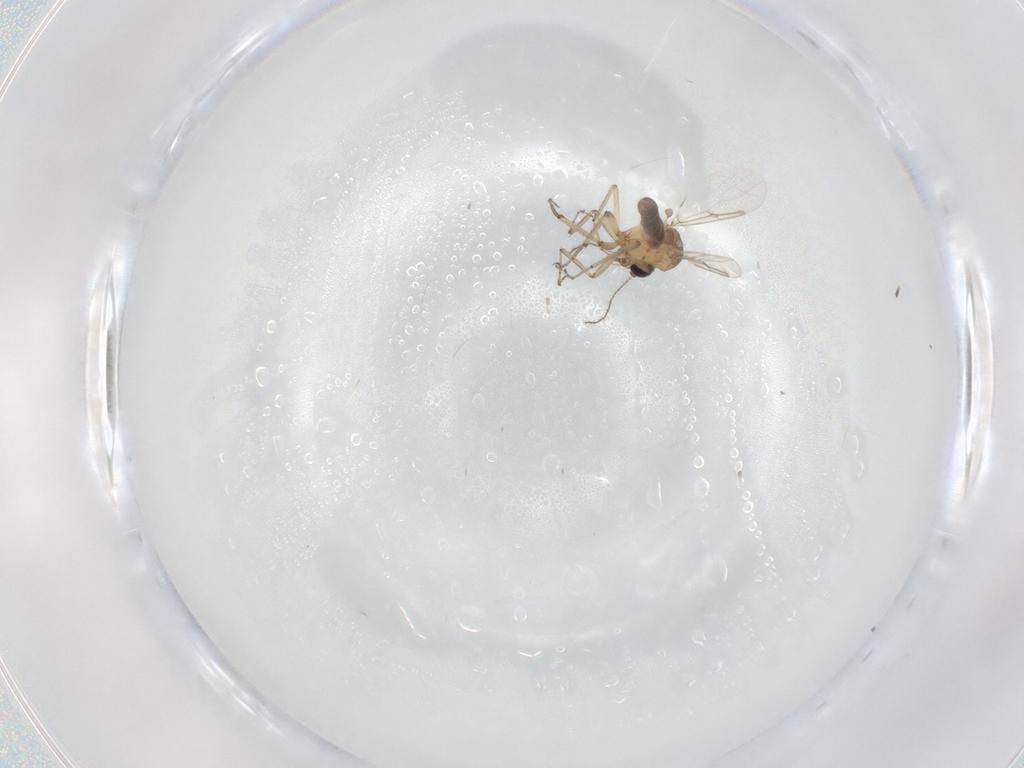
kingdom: Animalia
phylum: Arthropoda
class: Insecta
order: Diptera
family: Ceratopogonidae
